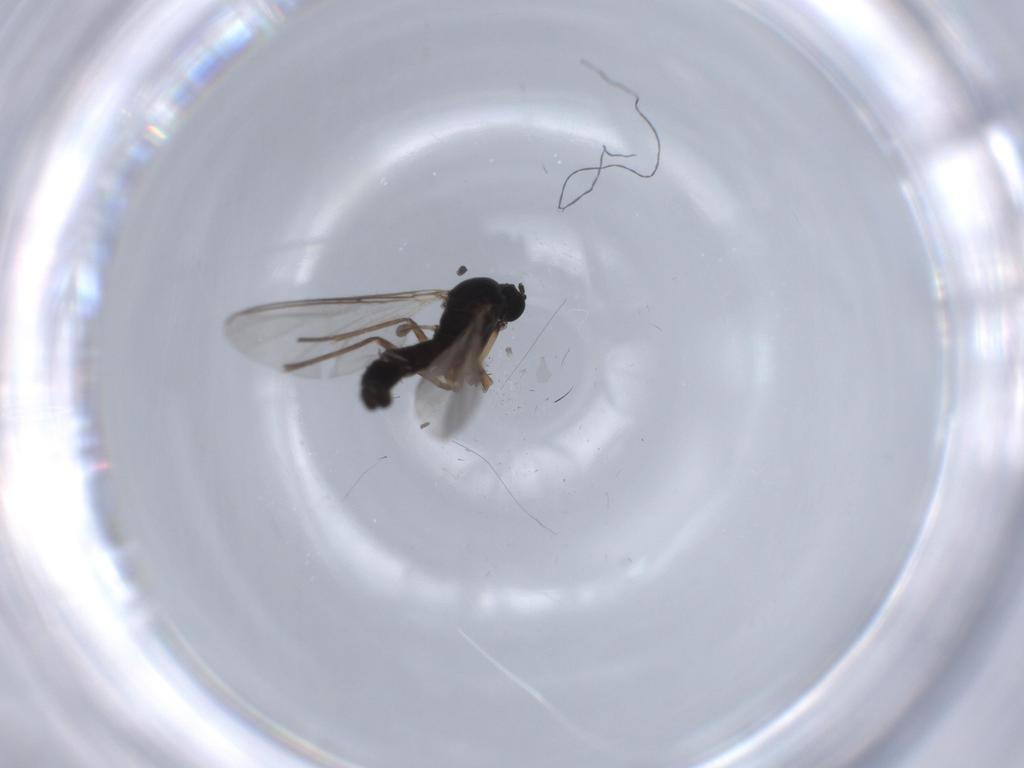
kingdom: Animalia
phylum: Arthropoda
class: Insecta
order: Diptera
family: Sciaridae
